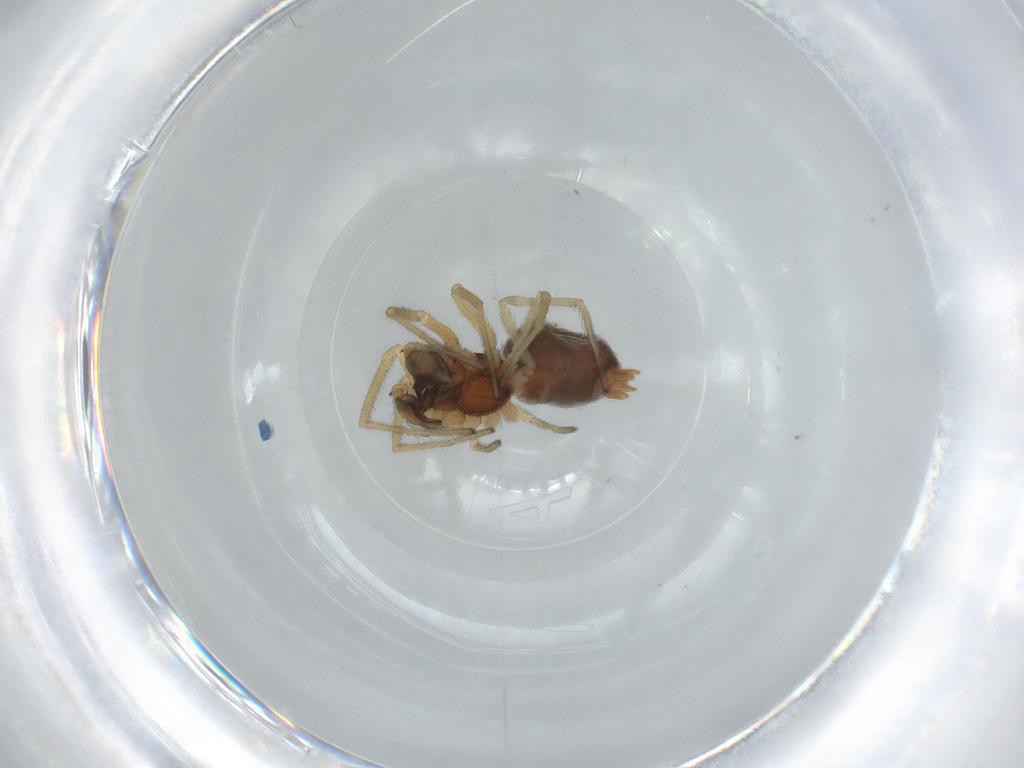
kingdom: Animalia
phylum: Arthropoda
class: Arachnida
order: Araneae
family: Dictynidae
